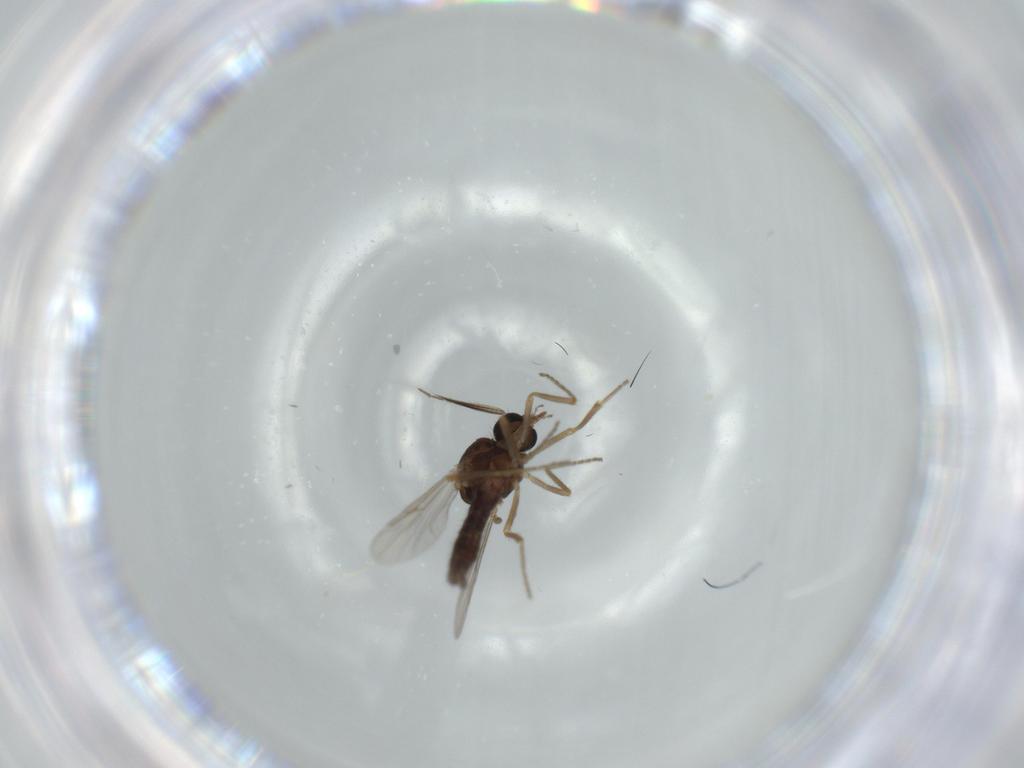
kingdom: Animalia
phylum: Arthropoda
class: Insecta
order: Diptera
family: Ceratopogonidae
